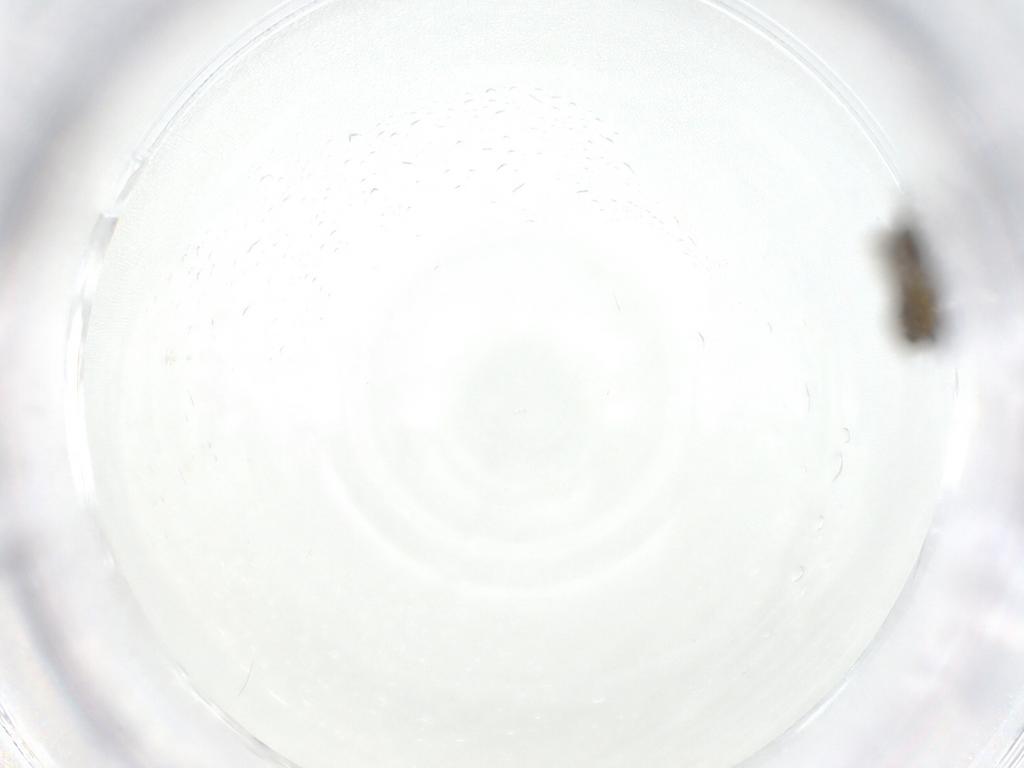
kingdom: Animalia
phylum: Arthropoda
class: Insecta
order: Diptera
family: Chironomidae
